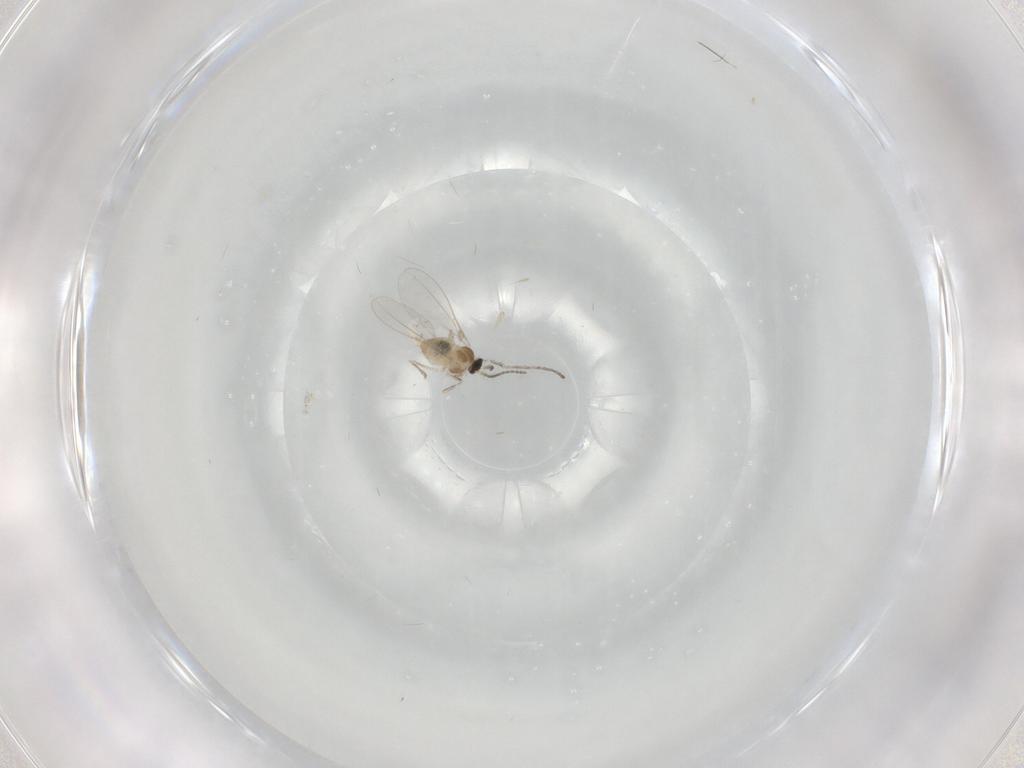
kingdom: Animalia
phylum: Arthropoda
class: Insecta
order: Diptera
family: Cecidomyiidae
